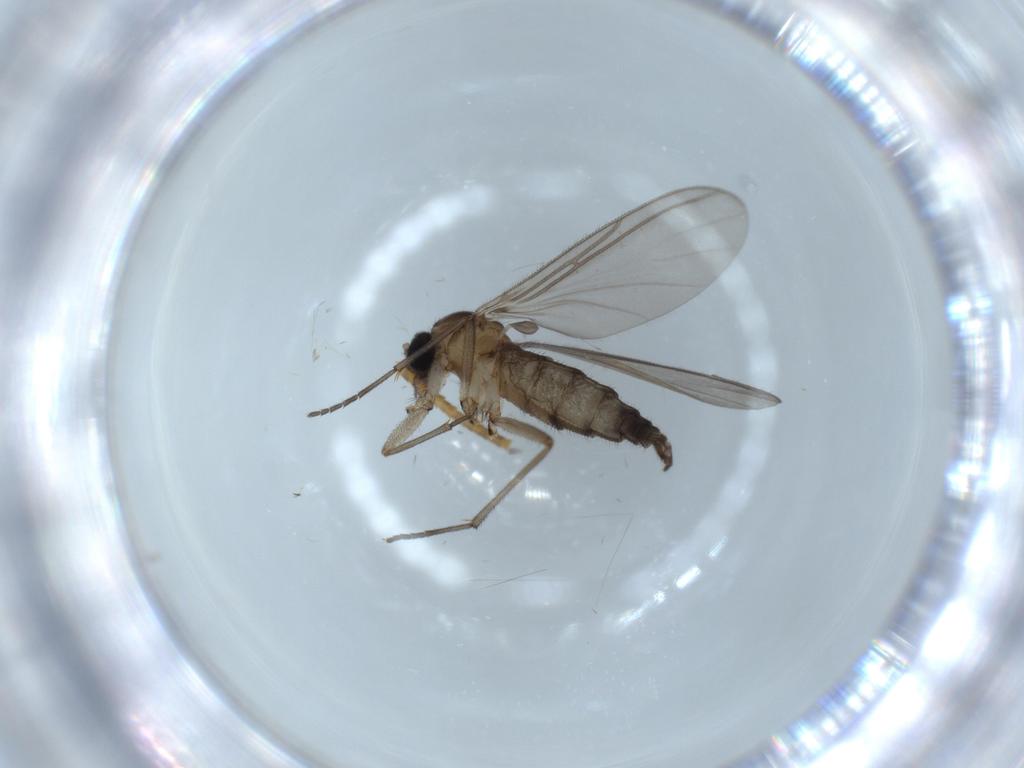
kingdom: Animalia
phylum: Arthropoda
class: Insecta
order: Diptera
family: Sciaridae
